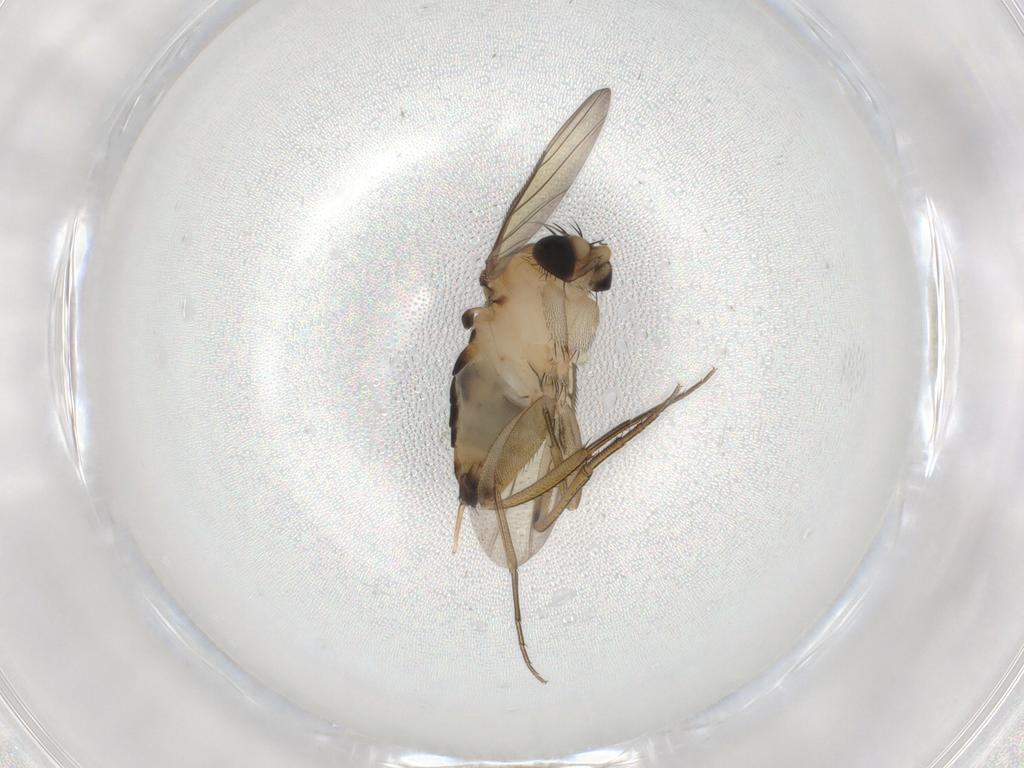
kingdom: Animalia
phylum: Arthropoda
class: Insecta
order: Diptera
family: Phoridae
